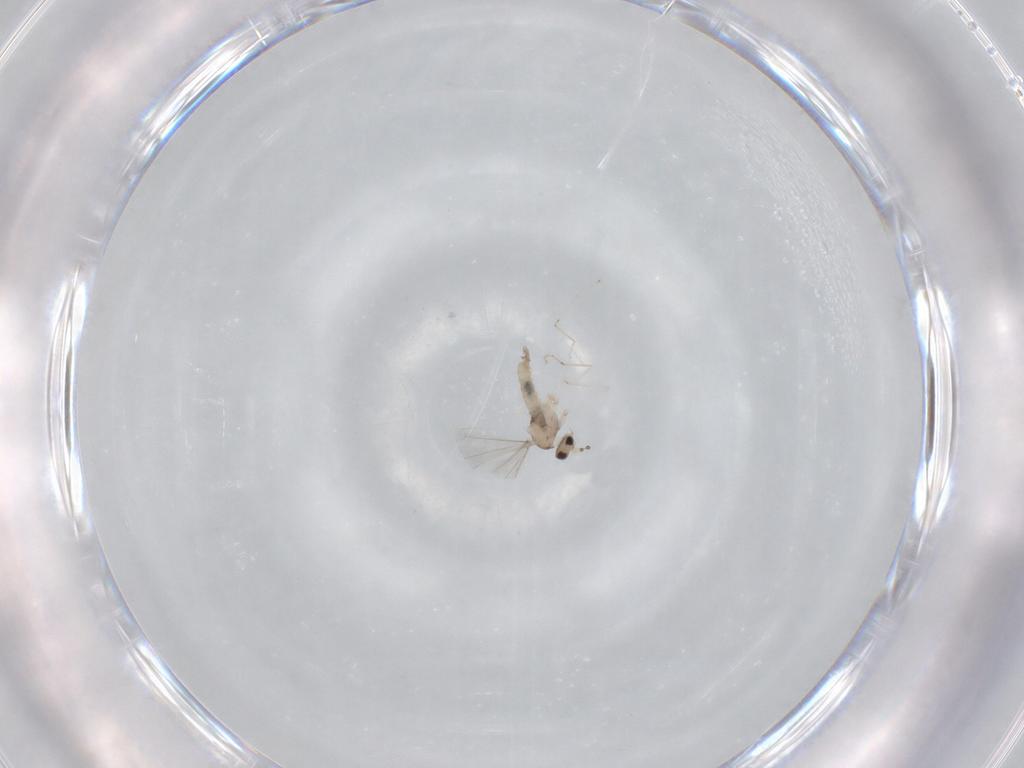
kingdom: Animalia
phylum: Arthropoda
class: Insecta
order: Diptera
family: Cecidomyiidae
